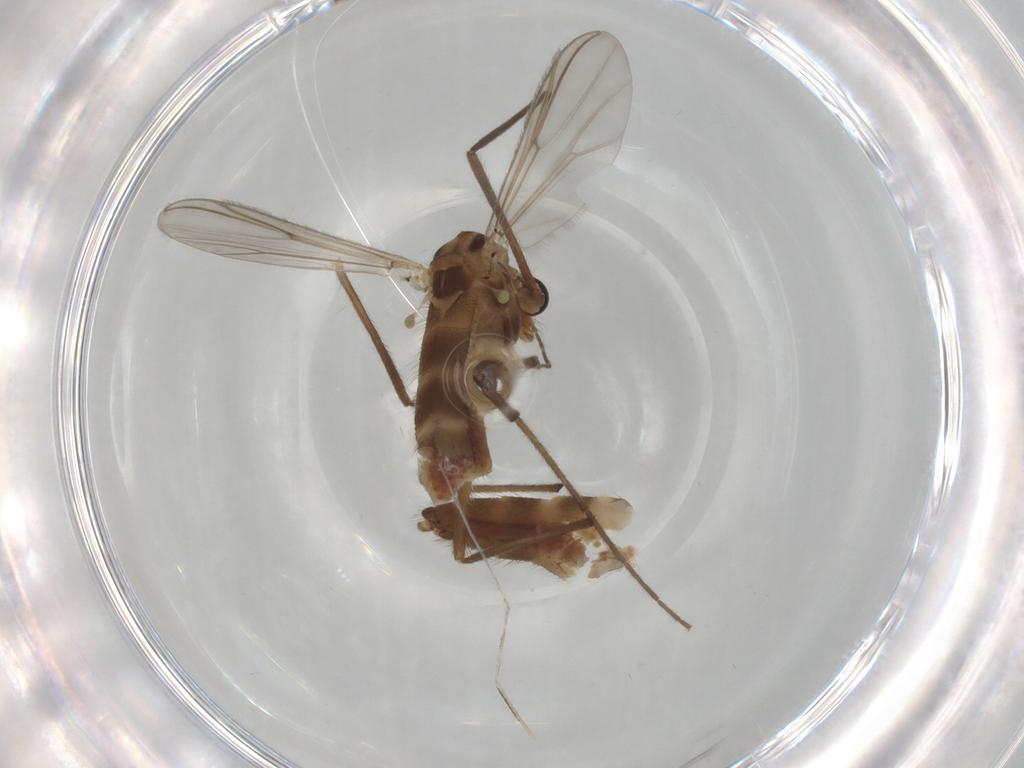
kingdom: Animalia
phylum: Arthropoda
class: Insecta
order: Diptera
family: Chironomidae
